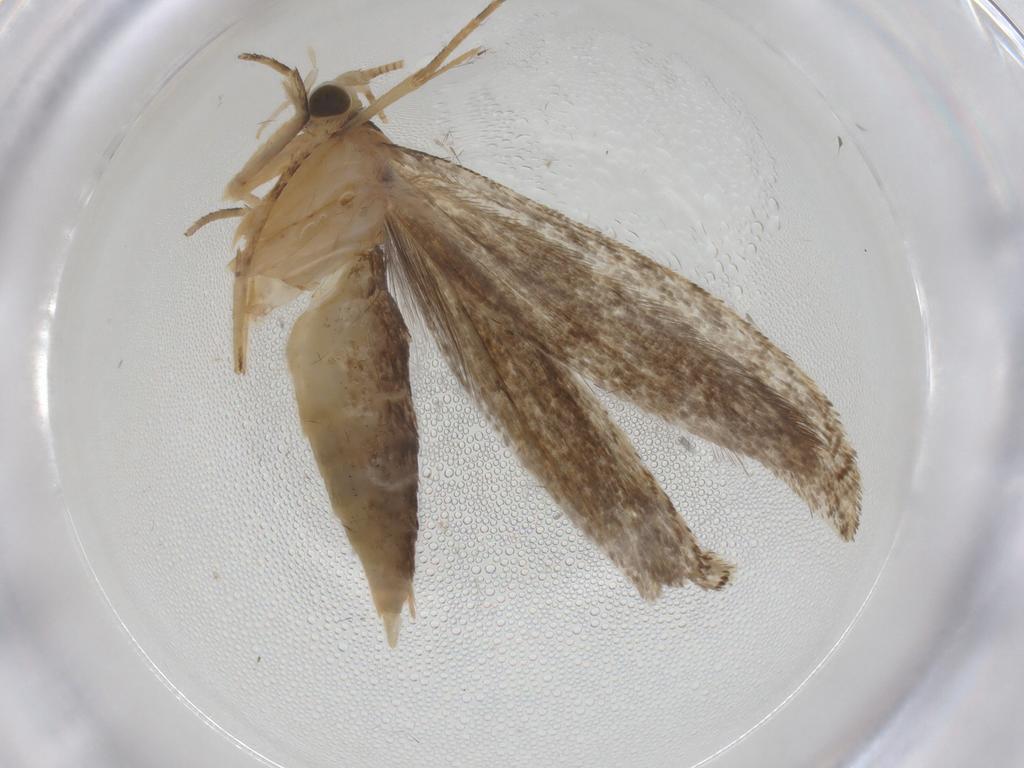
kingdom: Animalia
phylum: Arthropoda
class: Insecta
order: Lepidoptera
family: Nepticulidae
